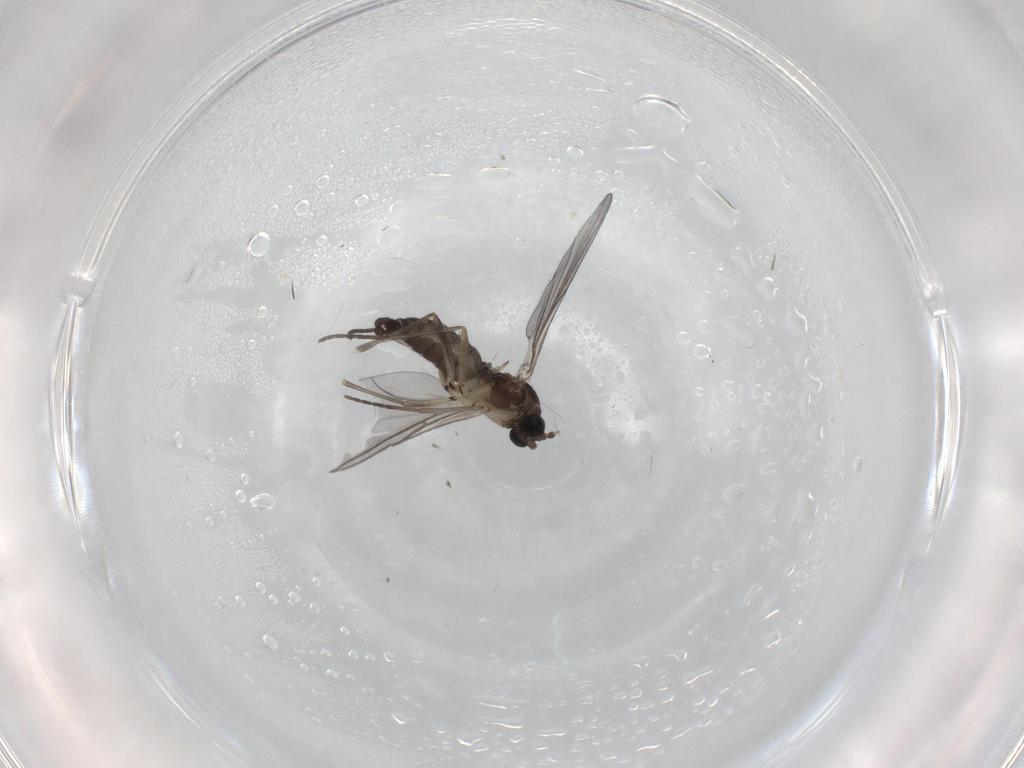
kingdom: Animalia
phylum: Arthropoda
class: Insecta
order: Diptera
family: Sciaridae
